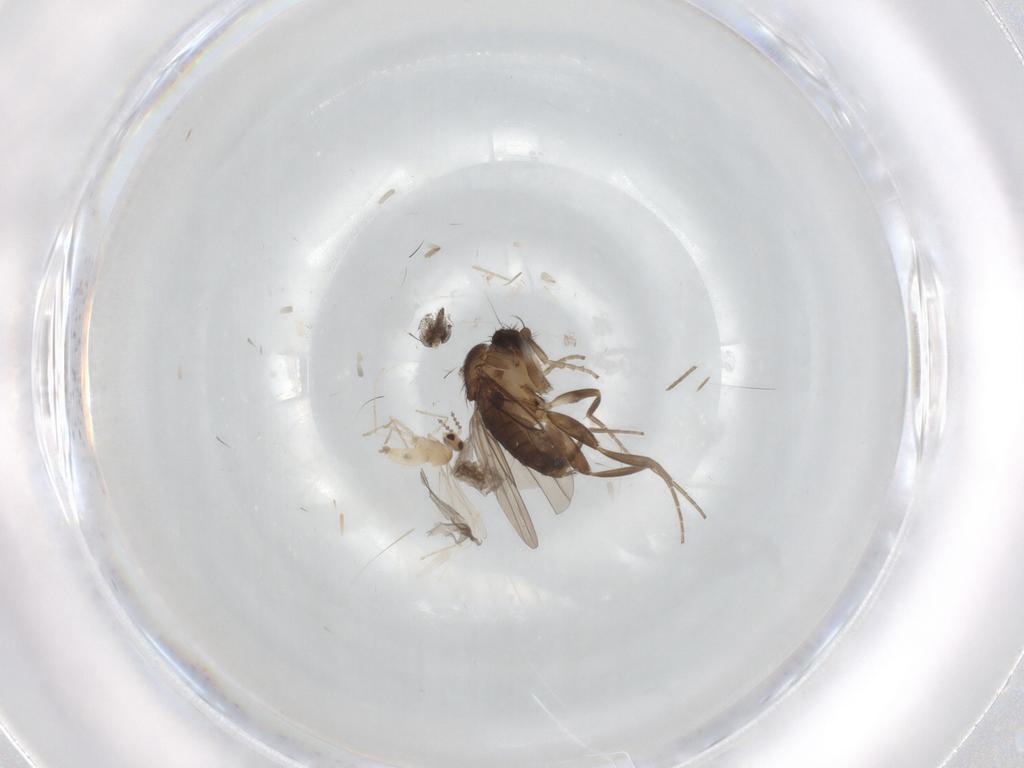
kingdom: Animalia
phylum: Arthropoda
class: Insecta
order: Diptera
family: Phoridae
